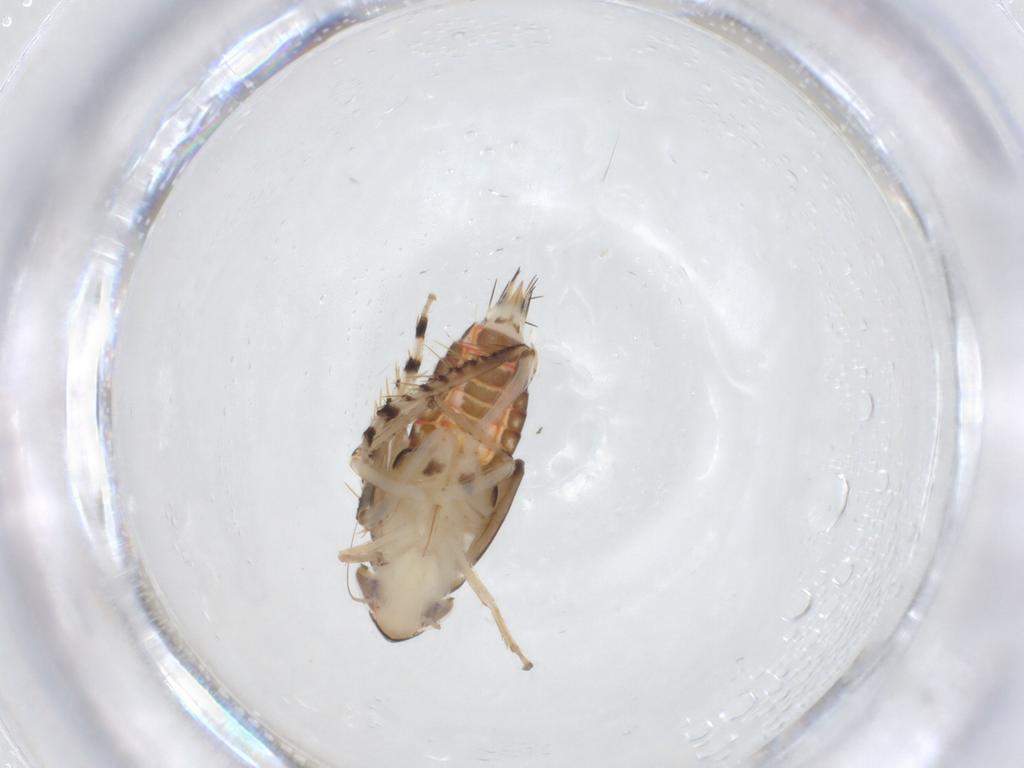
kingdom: Animalia
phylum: Arthropoda
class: Insecta
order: Hemiptera
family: Cicadellidae
